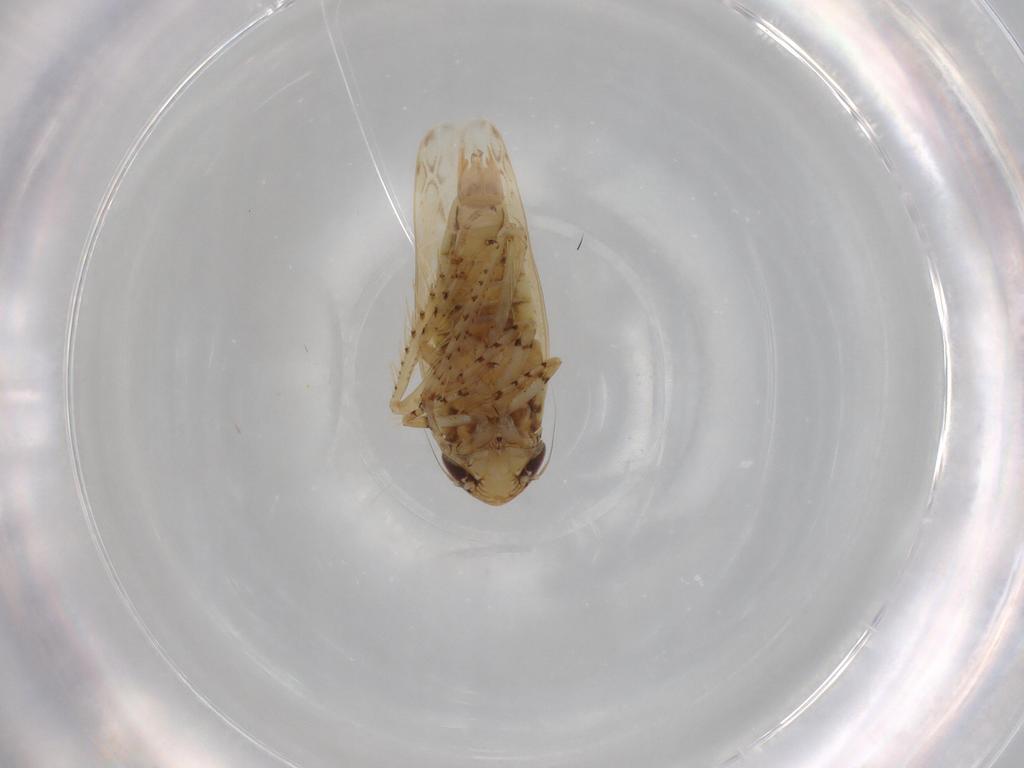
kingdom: Animalia
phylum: Arthropoda
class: Insecta
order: Hemiptera
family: Cicadellidae
